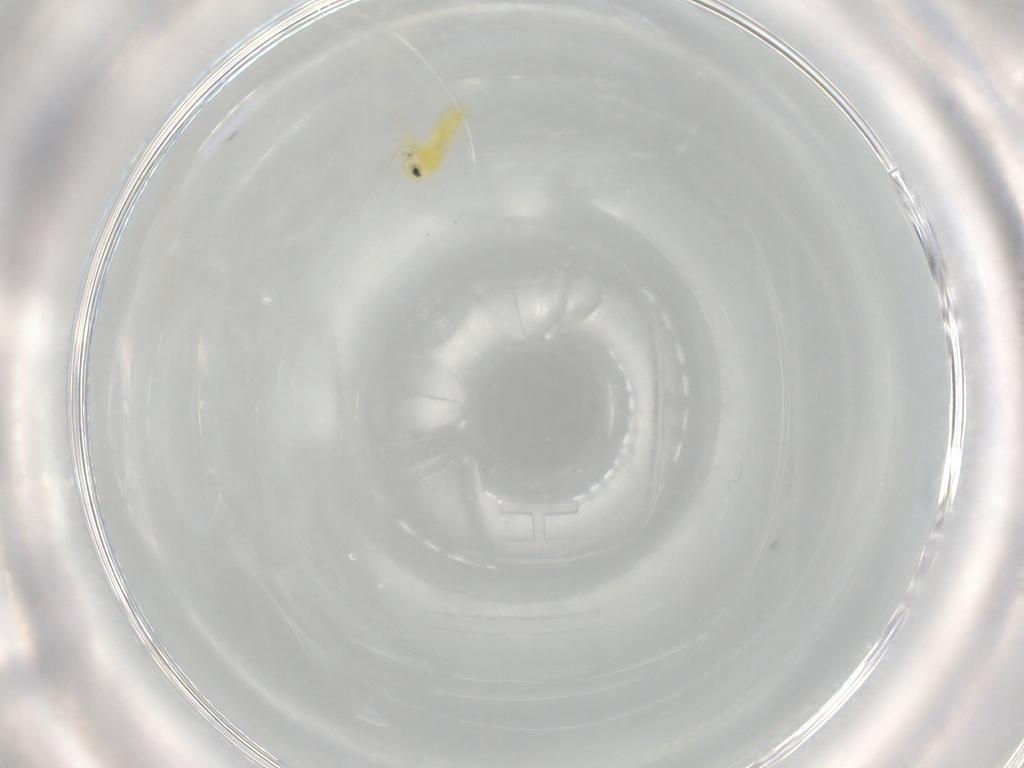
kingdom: Animalia
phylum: Arthropoda
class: Insecta
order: Hemiptera
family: Aleyrodidae
